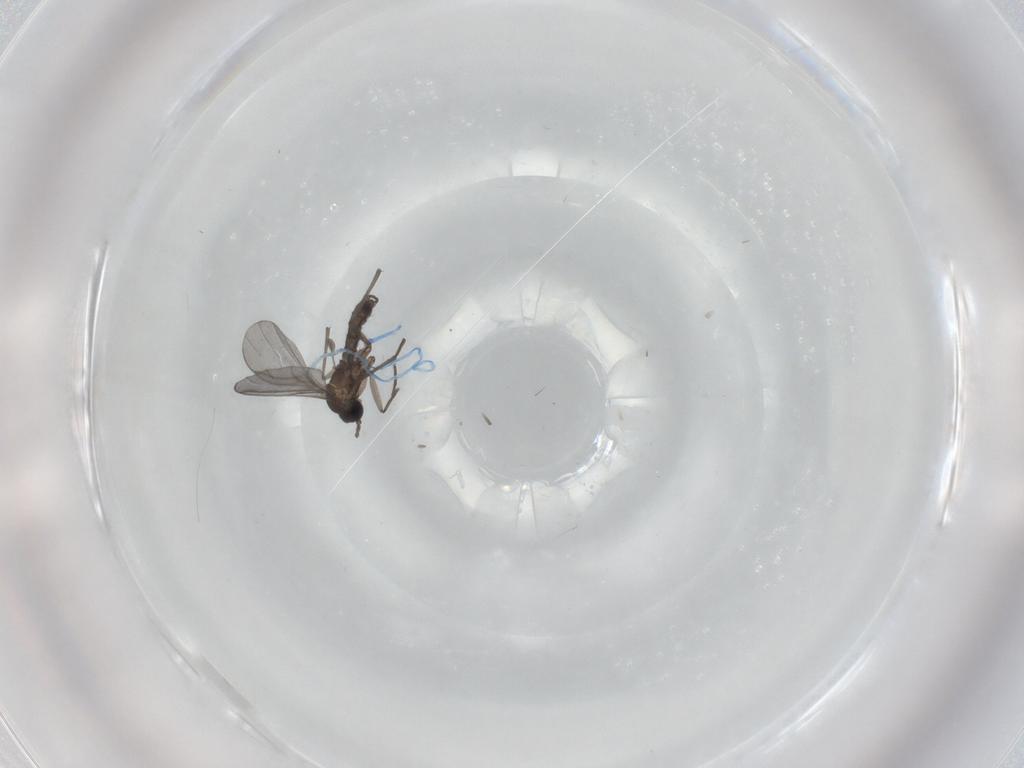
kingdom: Animalia
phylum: Arthropoda
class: Insecta
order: Diptera
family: Sciaridae
